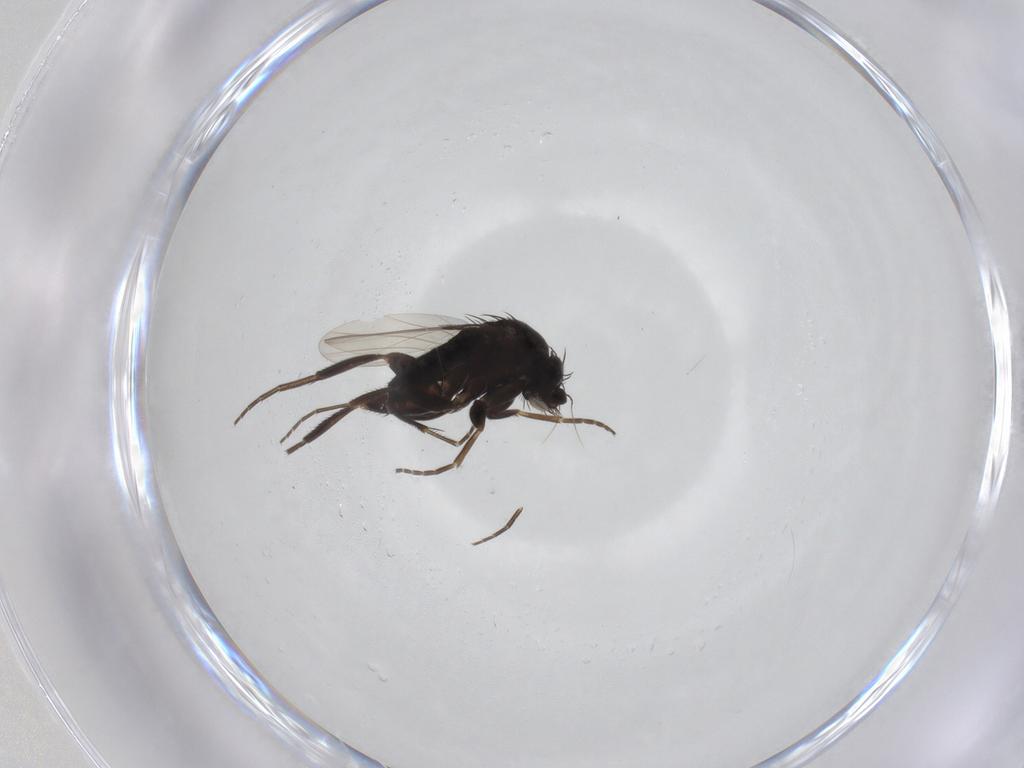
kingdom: Animalia
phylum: Arthropoda
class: Insecta
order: Diptera
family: Phoridae
